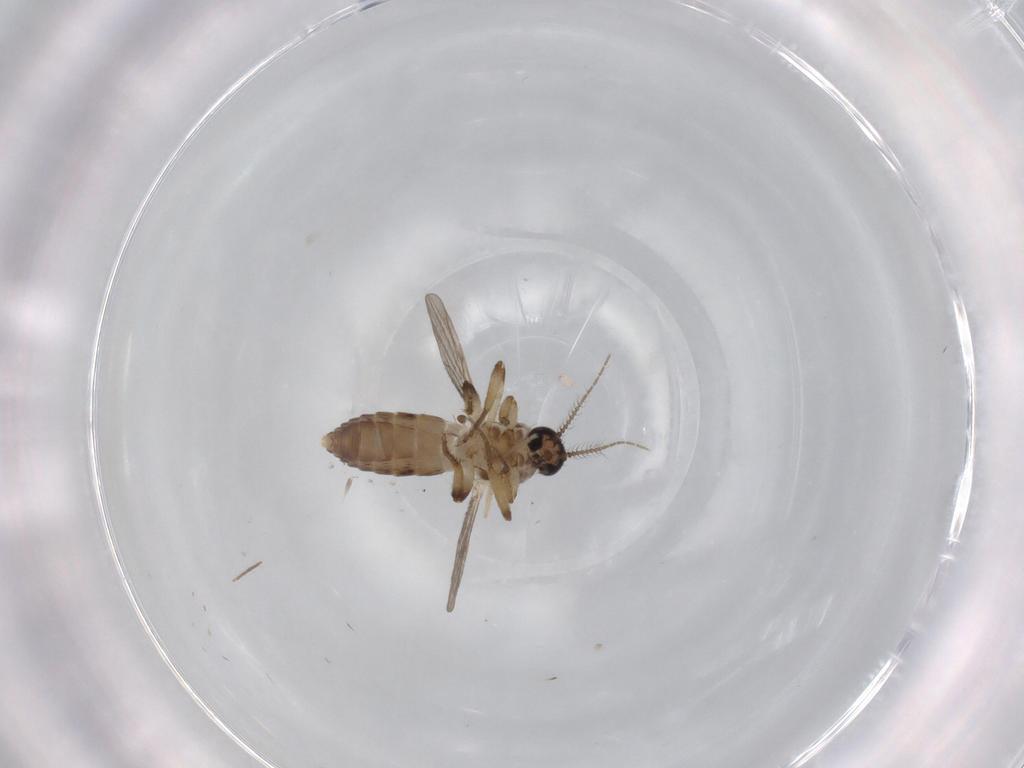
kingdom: Animalia
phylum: Arthropoda
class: Insecta
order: Diptera
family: Ceratopogonidae
